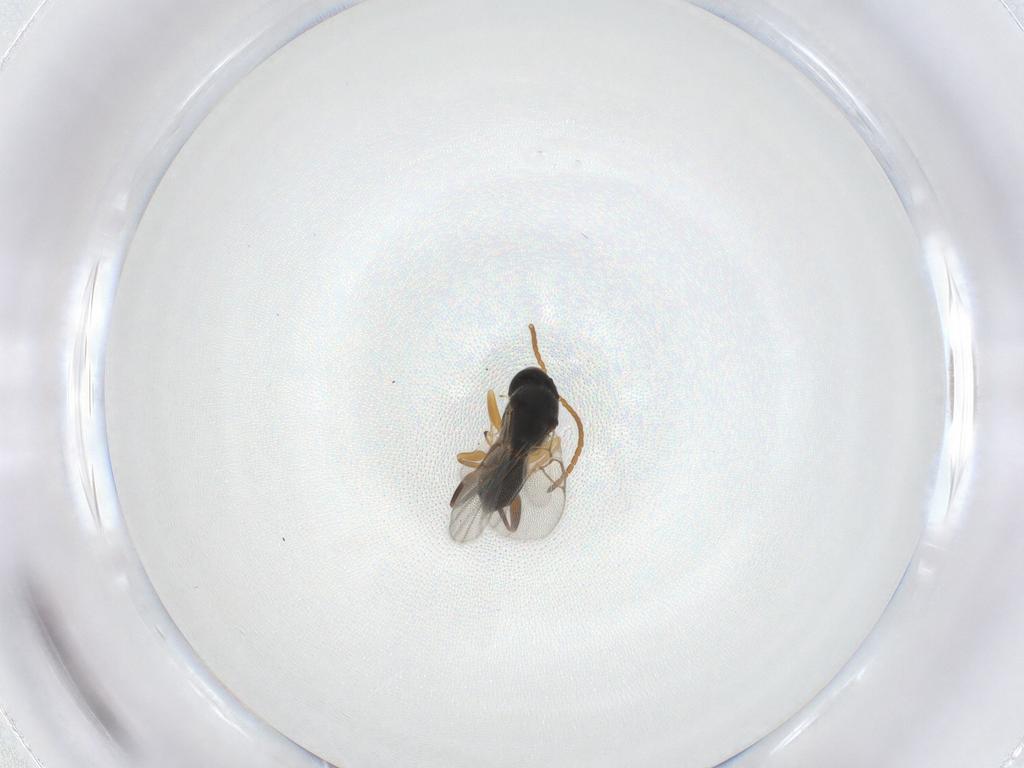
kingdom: Animalia
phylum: Arthropoda
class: Insecta
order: Hymenoptera
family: Cynipidae
